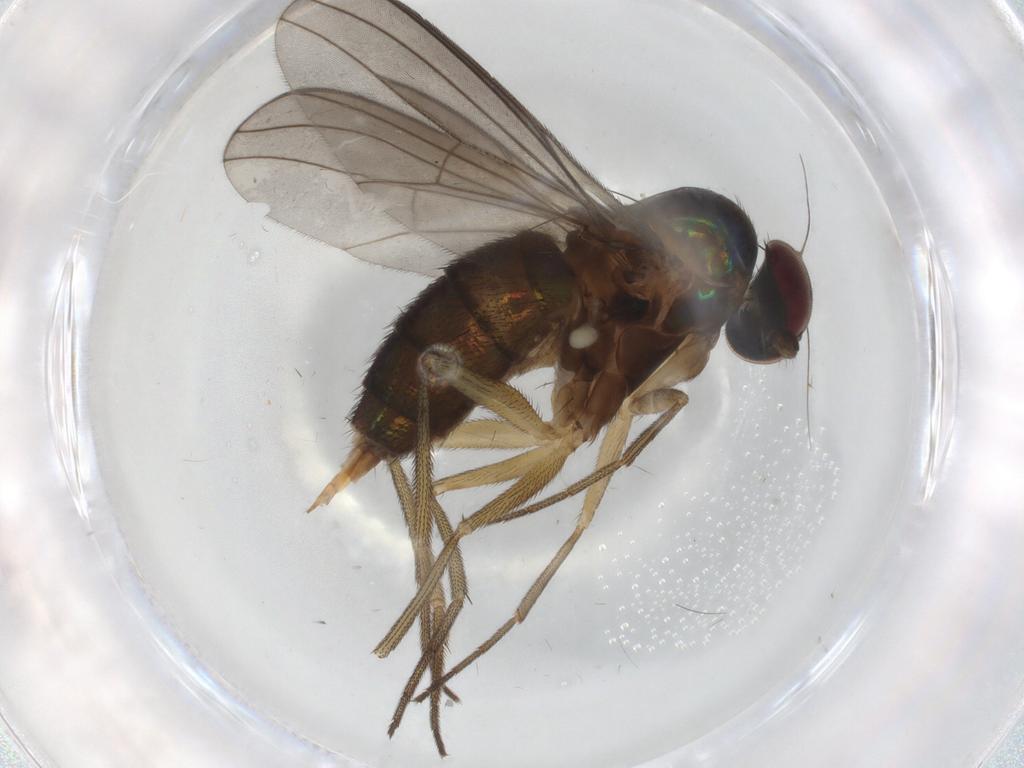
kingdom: Animalia
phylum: Arthropoda
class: Insecta
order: Diptera
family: Cecidomyiidae
